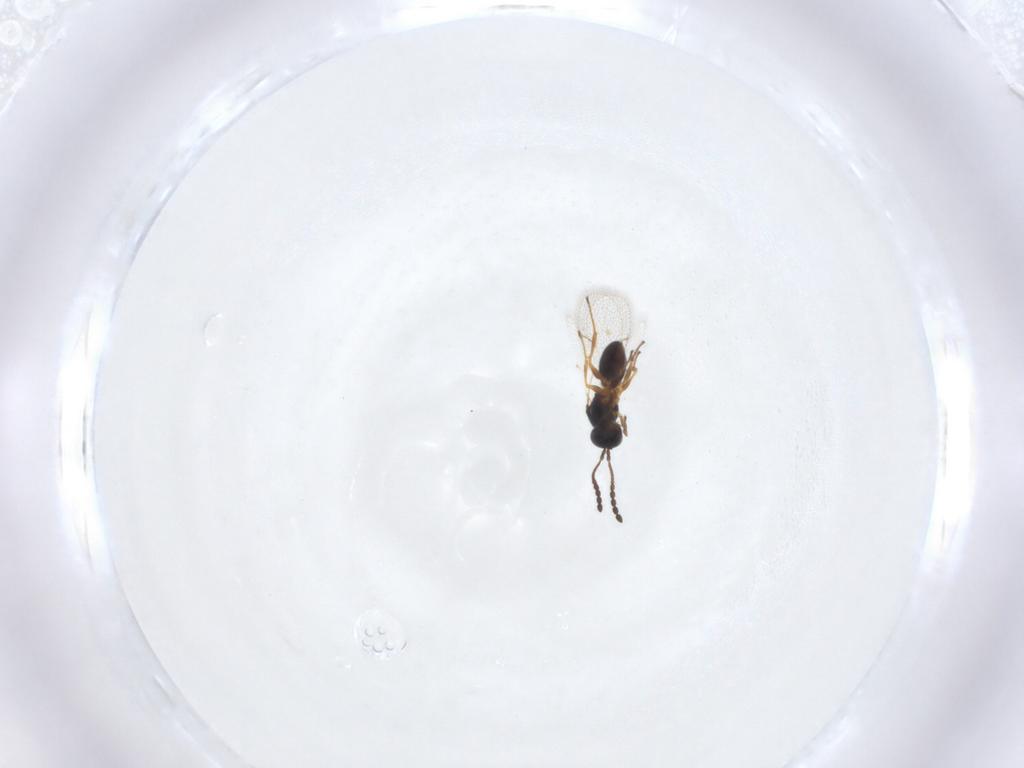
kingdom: Animalia
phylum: Arthropoda
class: Insecta
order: Hymenoptera
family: Figitidae
